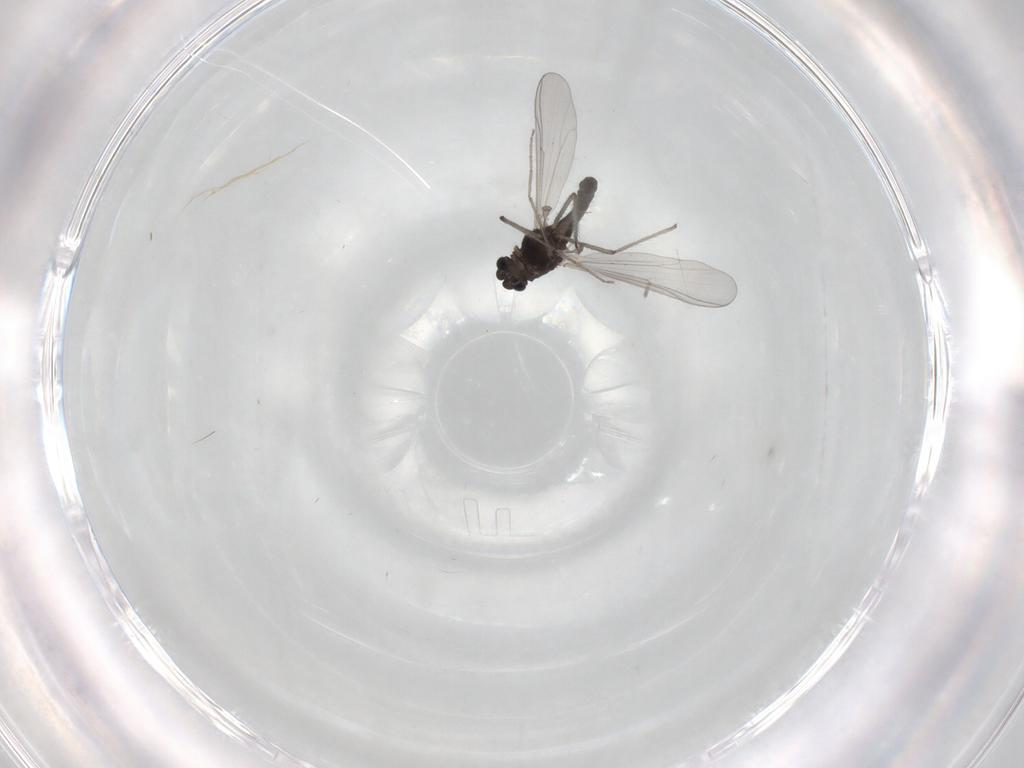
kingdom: Animalia
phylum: Arthropoda
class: Insecta
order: Diptera
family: Chironomidae
